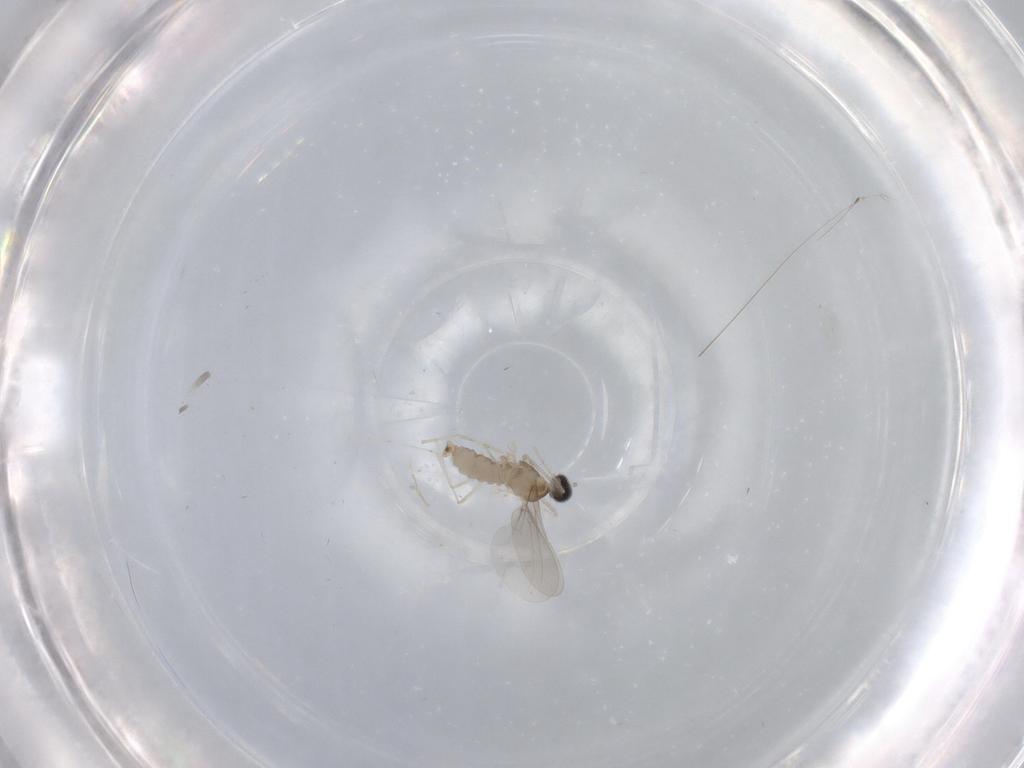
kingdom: Animalia
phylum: Arthropoda
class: Insecta
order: Diptera
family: Cecidomyiidae
